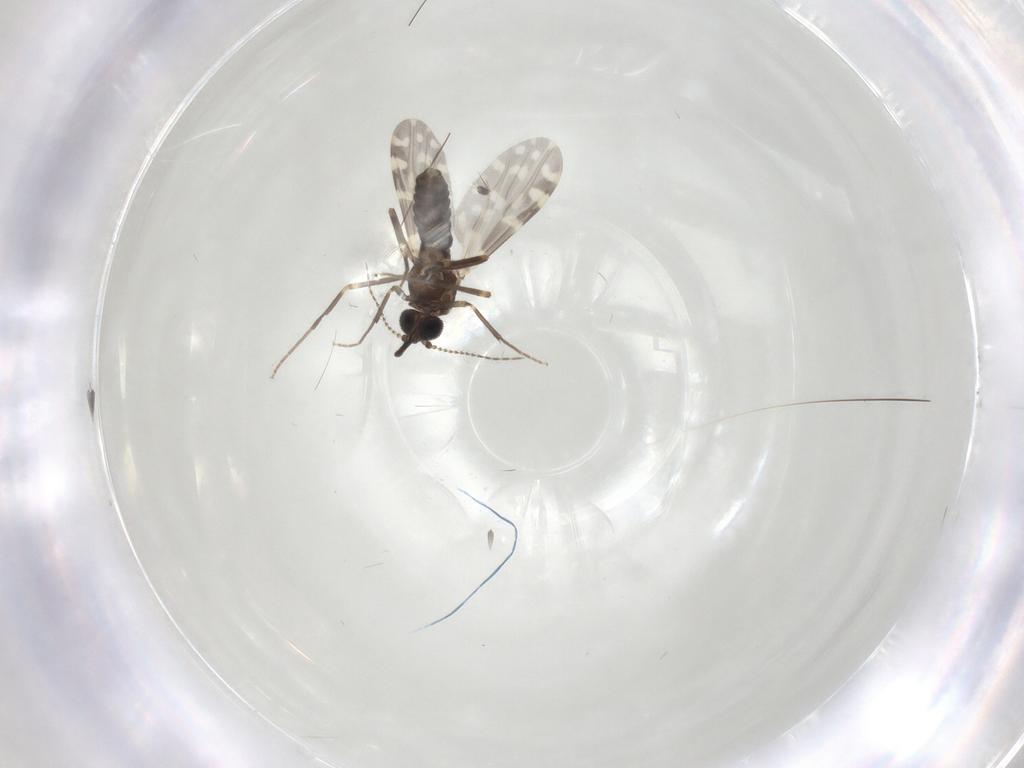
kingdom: Animalia
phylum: Arthropoda
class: Insecta
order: Diptera
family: Ceratopogonidae
